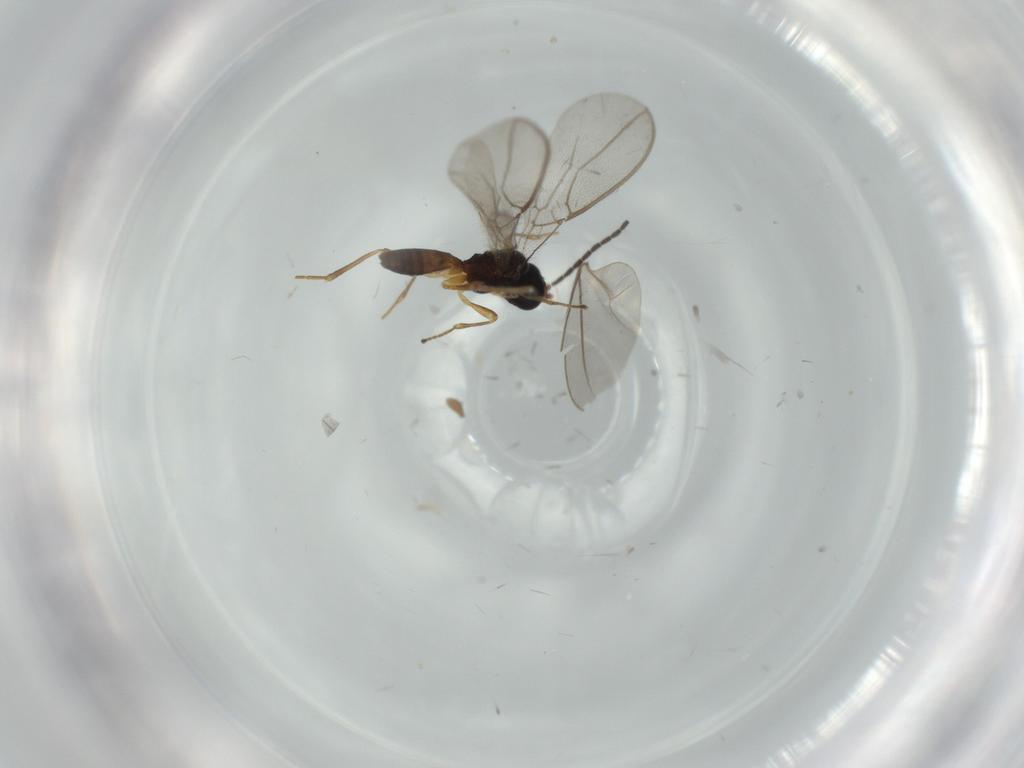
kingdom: Animalia
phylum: Arthropoda
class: Insecta
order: Hymenoptera
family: Braconidae
